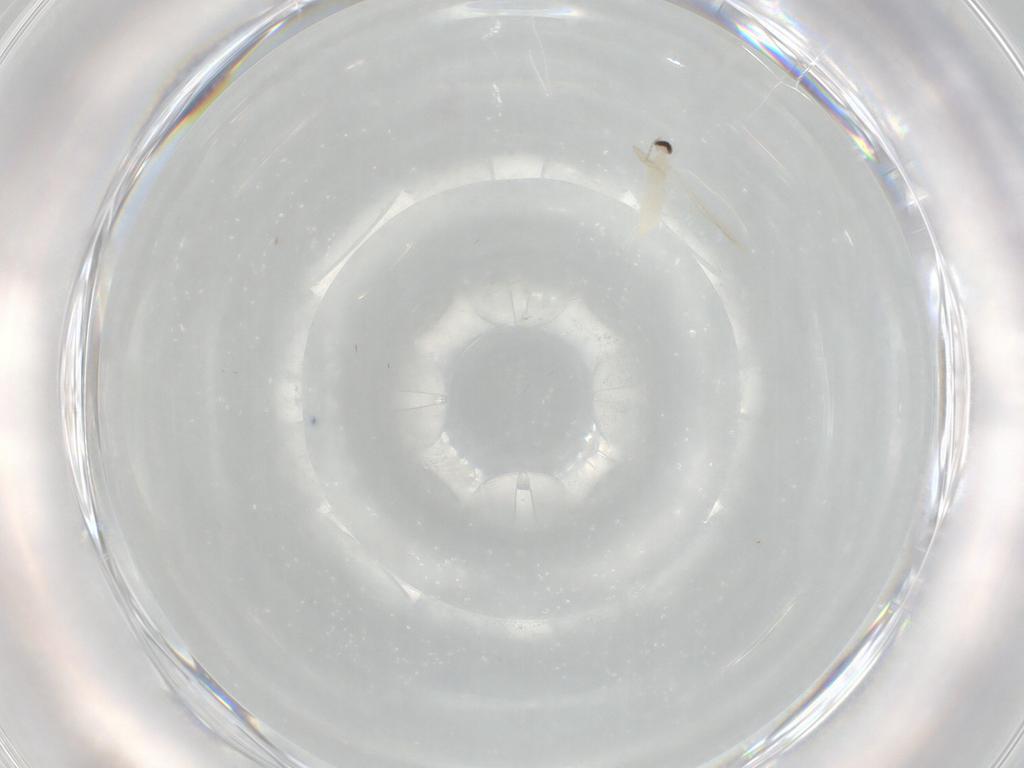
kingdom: Animalia
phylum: Arthropoda
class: Insecta
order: Diptera
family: Cecidomyiidae
